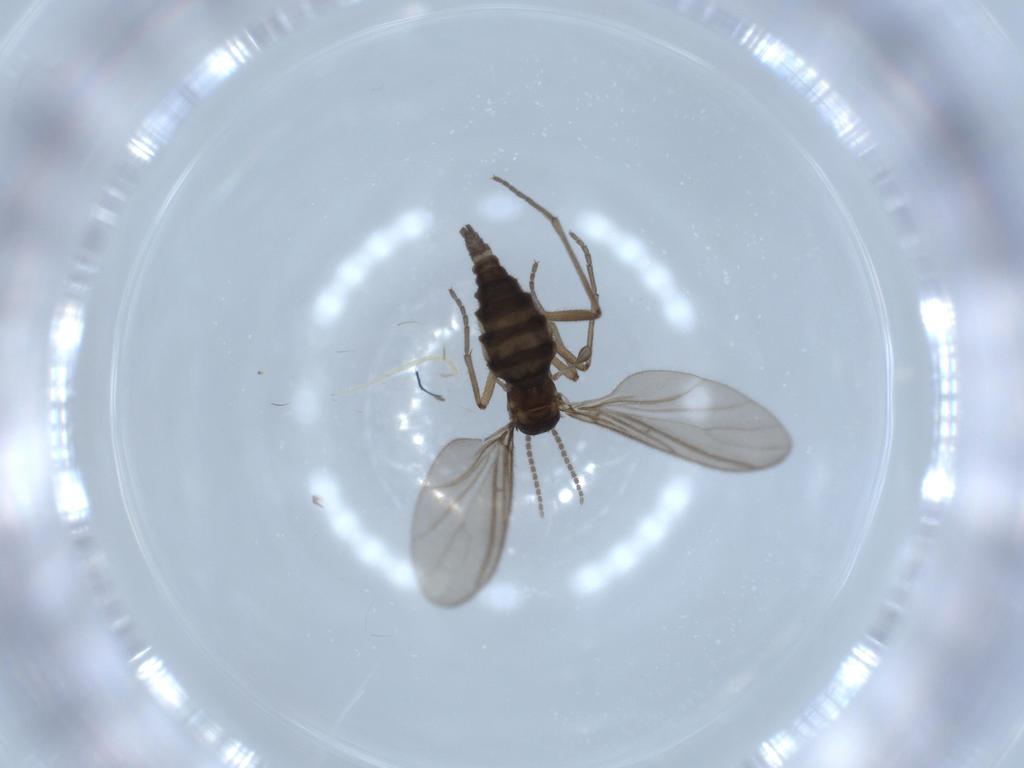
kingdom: Animalia
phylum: Arthropoda
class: Insecta
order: Diptera
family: Sciaridae
